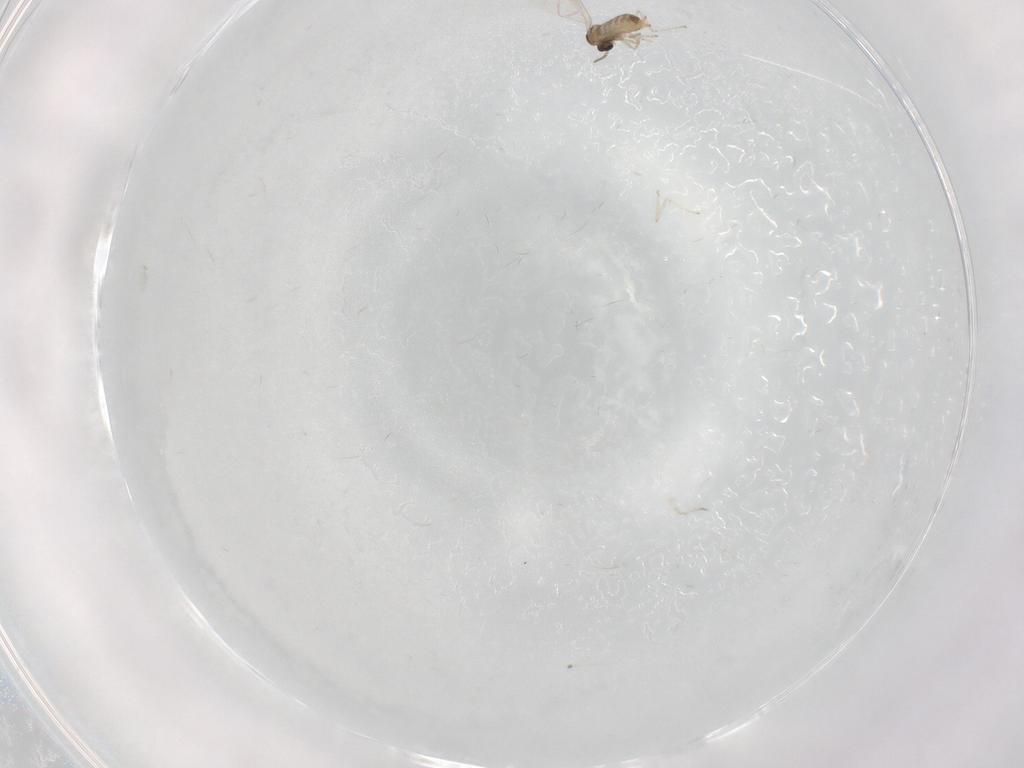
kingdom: Animalia
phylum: Arthropoda
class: Insecta
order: Diptera
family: Cecidomyiidae
